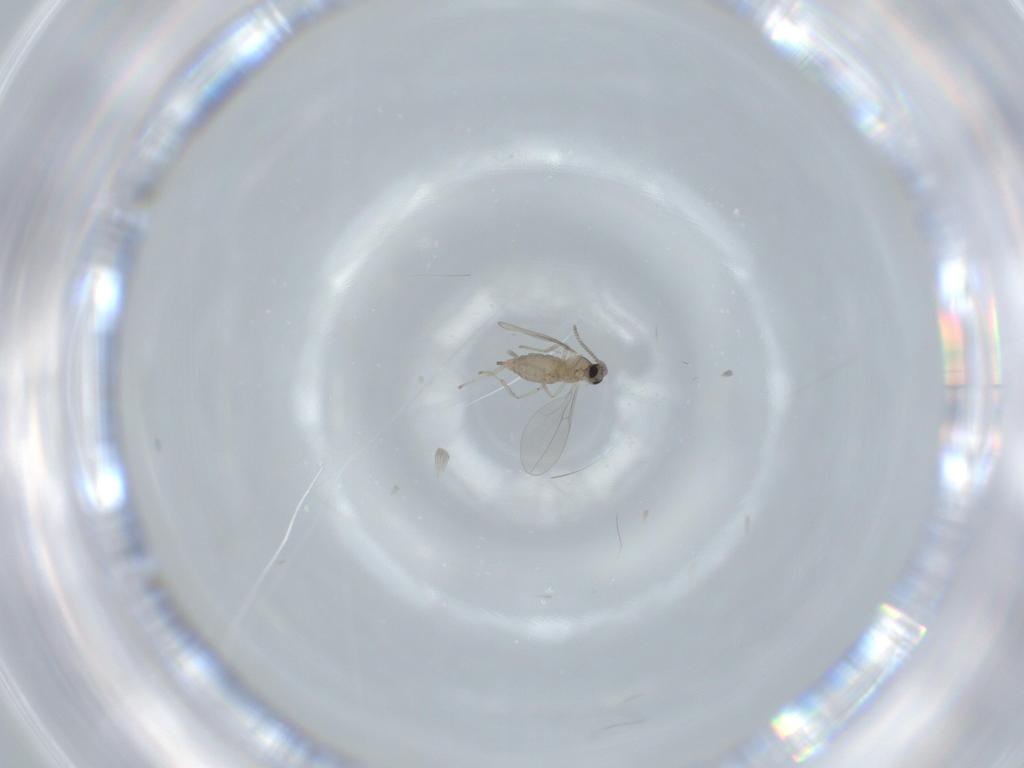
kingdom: Animalia
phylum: Arthropoda
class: Insecta
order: Diptera
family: Cecidomyiidae
